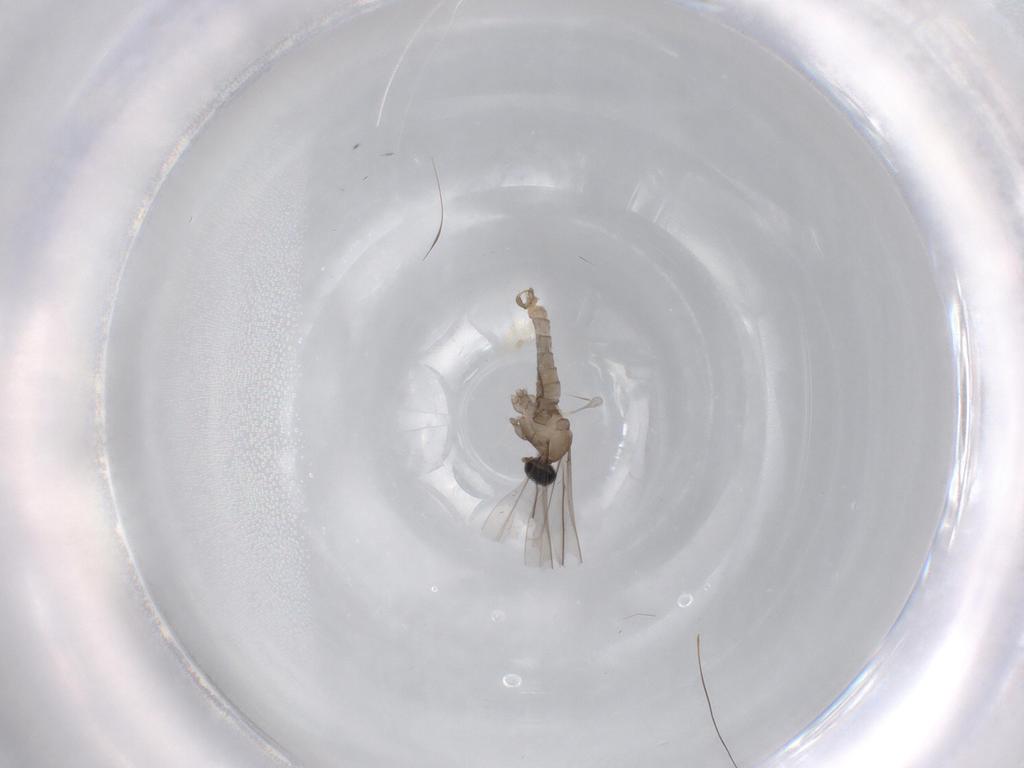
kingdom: Animalia
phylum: Arthropoda
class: Insecta
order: Diptera
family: Cecidomyiidae
